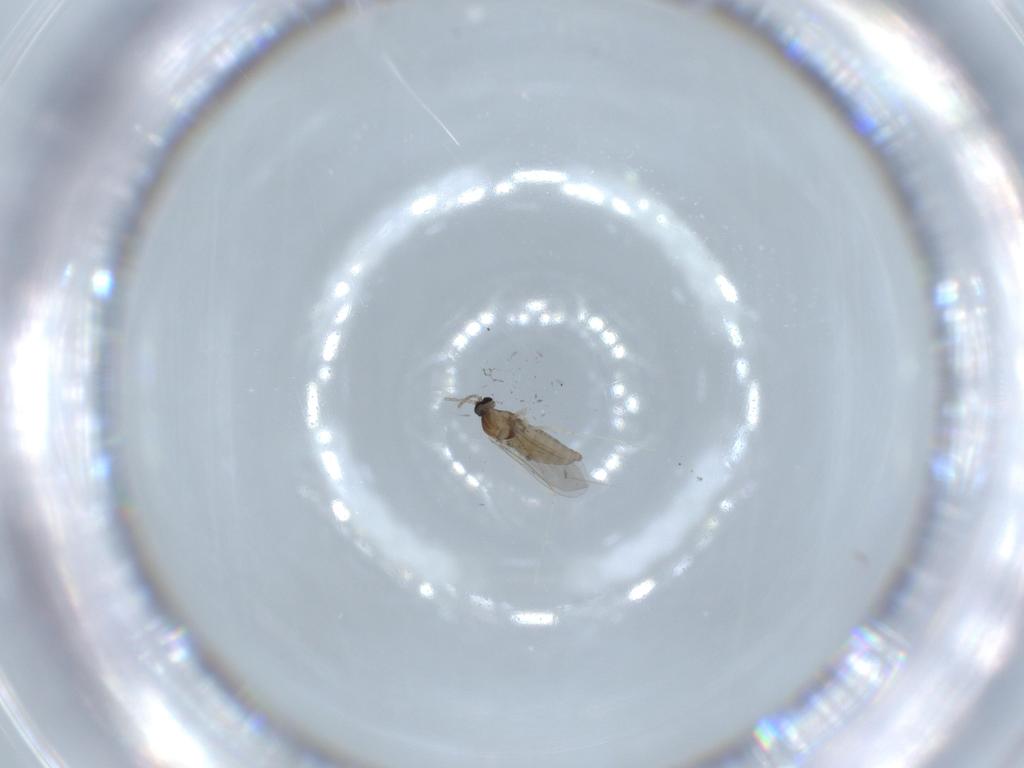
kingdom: Animalia
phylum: Arthropoda
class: Insecta
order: Diptera
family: Cecidomyiidae
